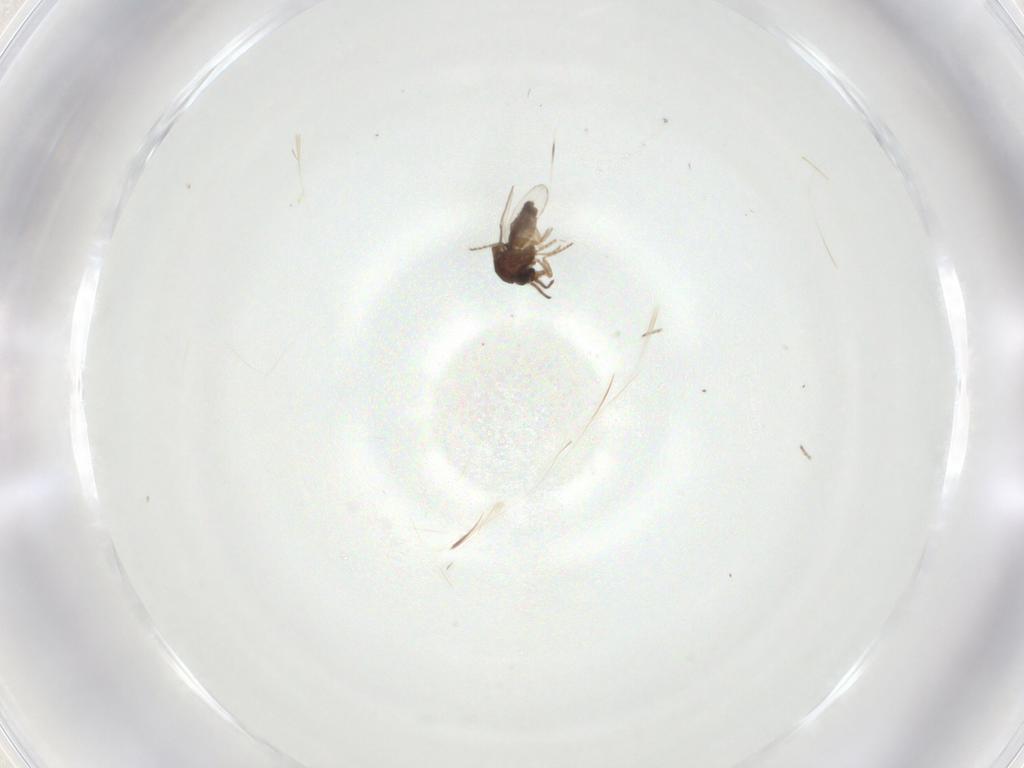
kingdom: Animalia
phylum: Arthropoda
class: Insecta
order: Diptera
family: Ceratopogonidae
